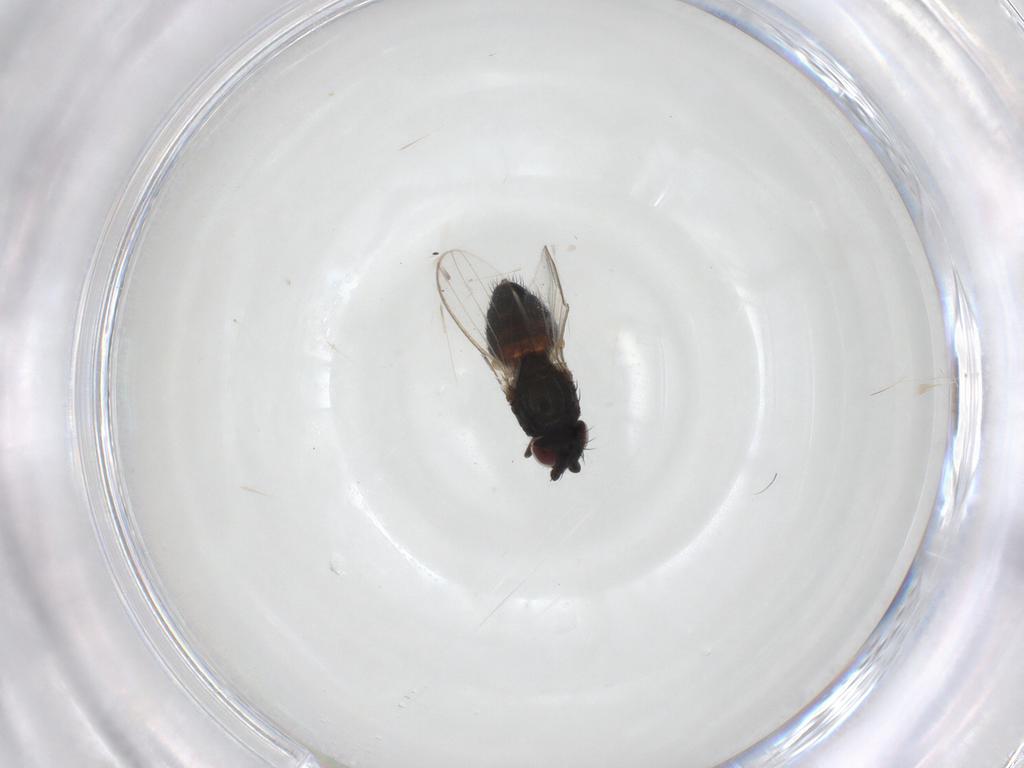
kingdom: Animalia
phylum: Arthropoda
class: Insecta
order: Diptera
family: Milichiidae
